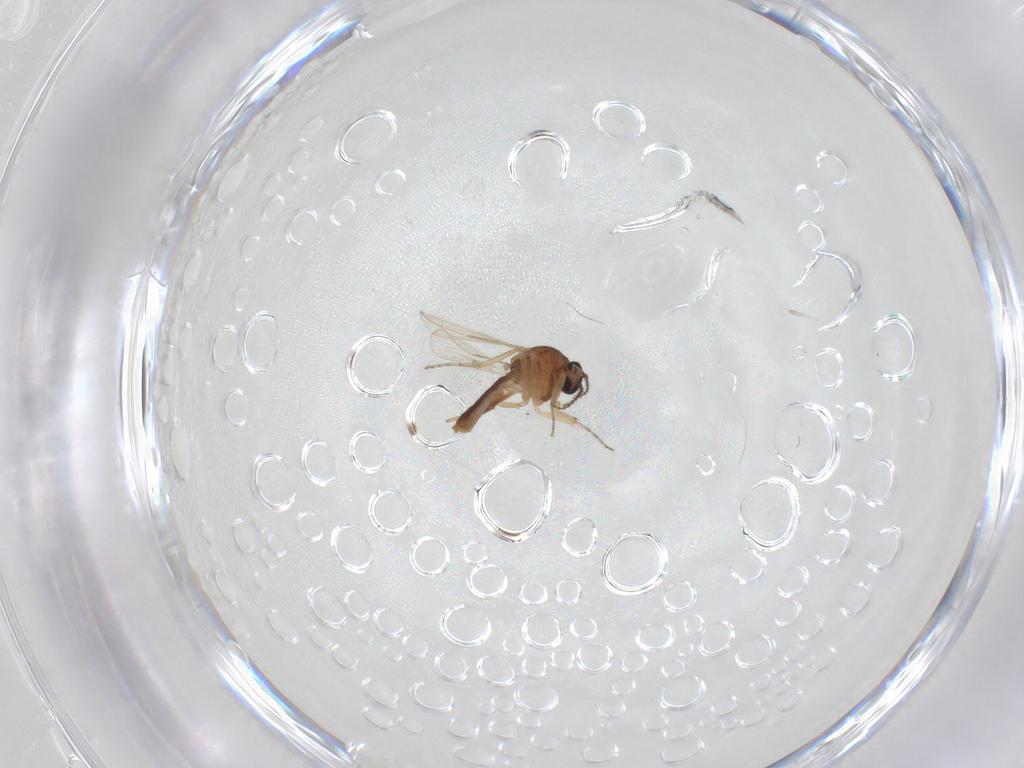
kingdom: Animalia
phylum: Arthropoda
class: Insecta
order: Diptera
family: Ceratopogonidae
